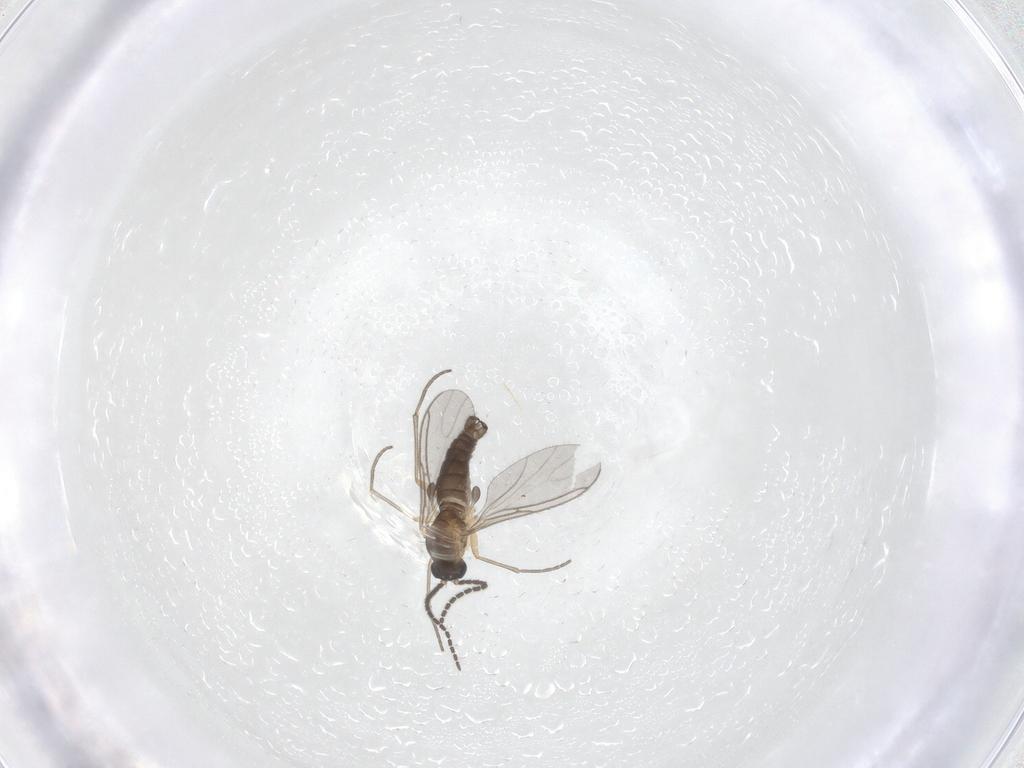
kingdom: Animalia
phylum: Arthropoda
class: Insecta
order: Diptera
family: Sciaridae
